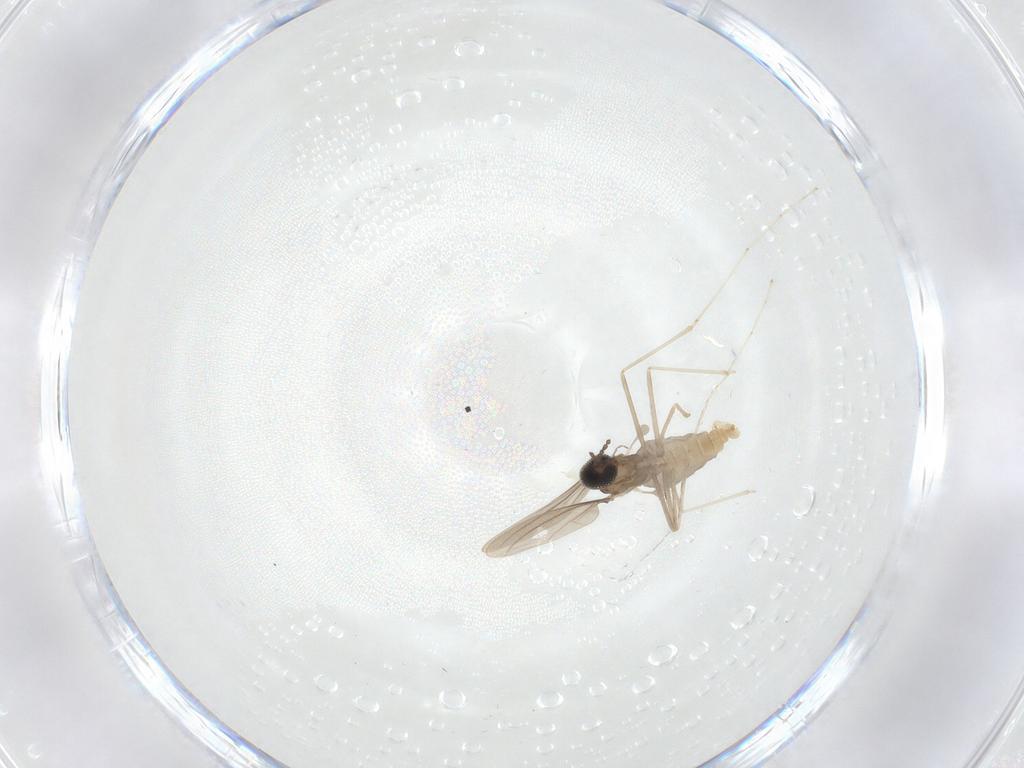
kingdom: Animalia
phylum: Arthropoda
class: Insecta
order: Diptera
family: Cecidomyiidae
